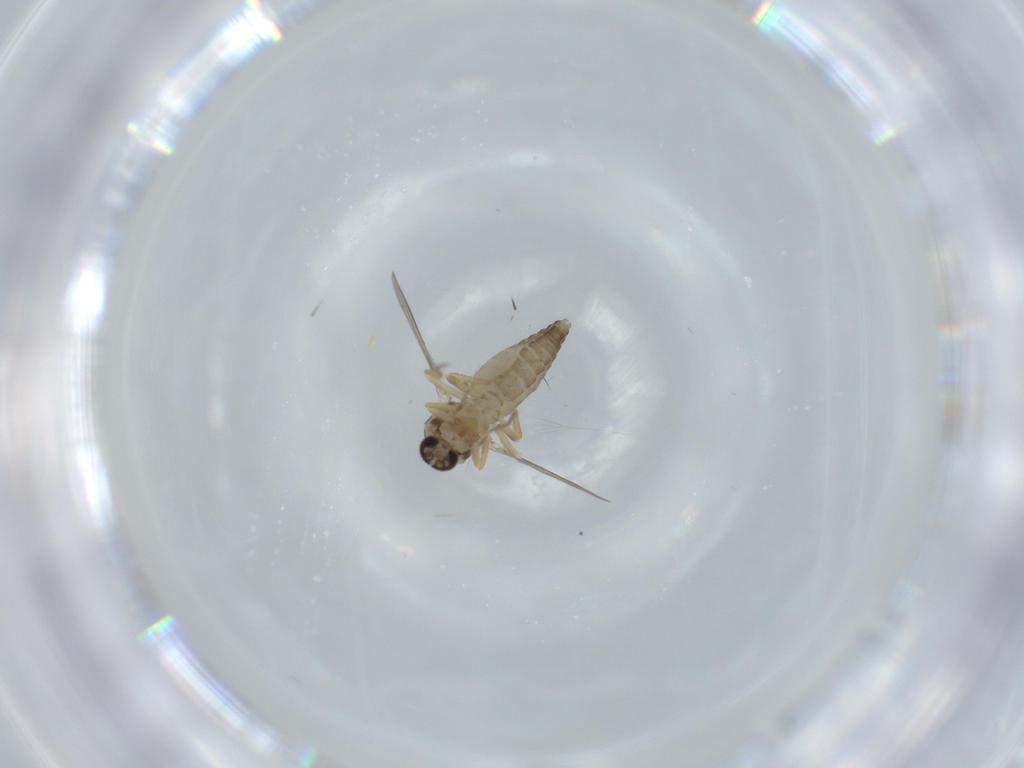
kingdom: Animalia
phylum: Arthropoda
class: Insecta
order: Diptera
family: Ceratopogonidae
